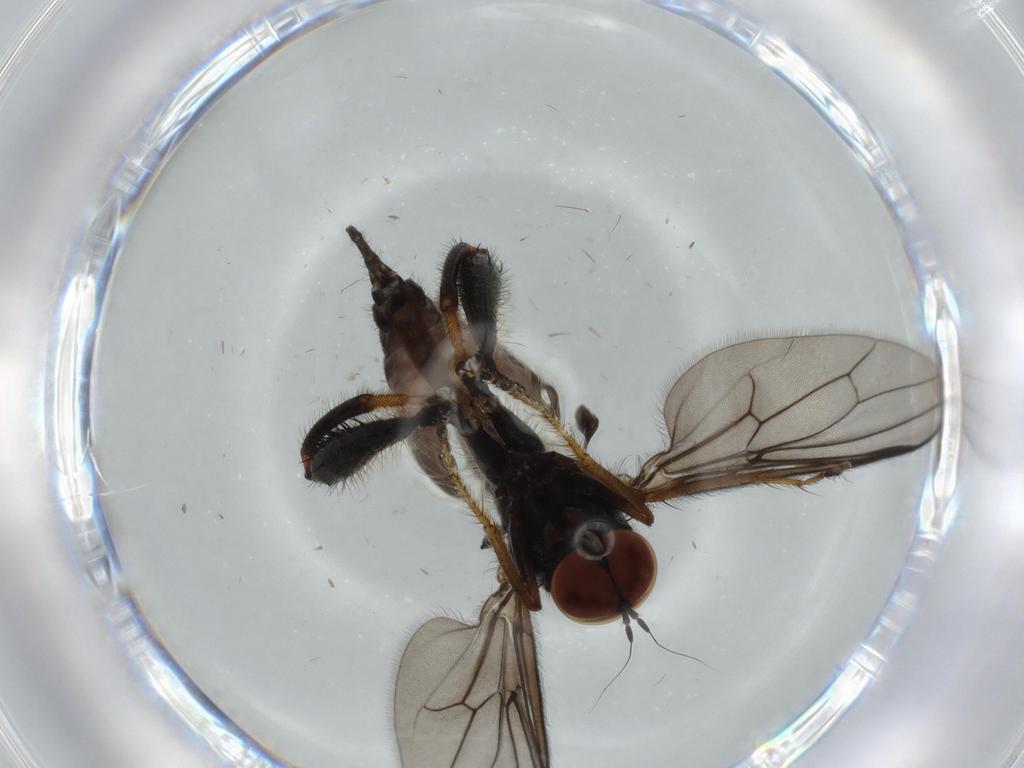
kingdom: Animalia
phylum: Arthropoda
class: Insecta
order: Diptera
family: Hybotidae
